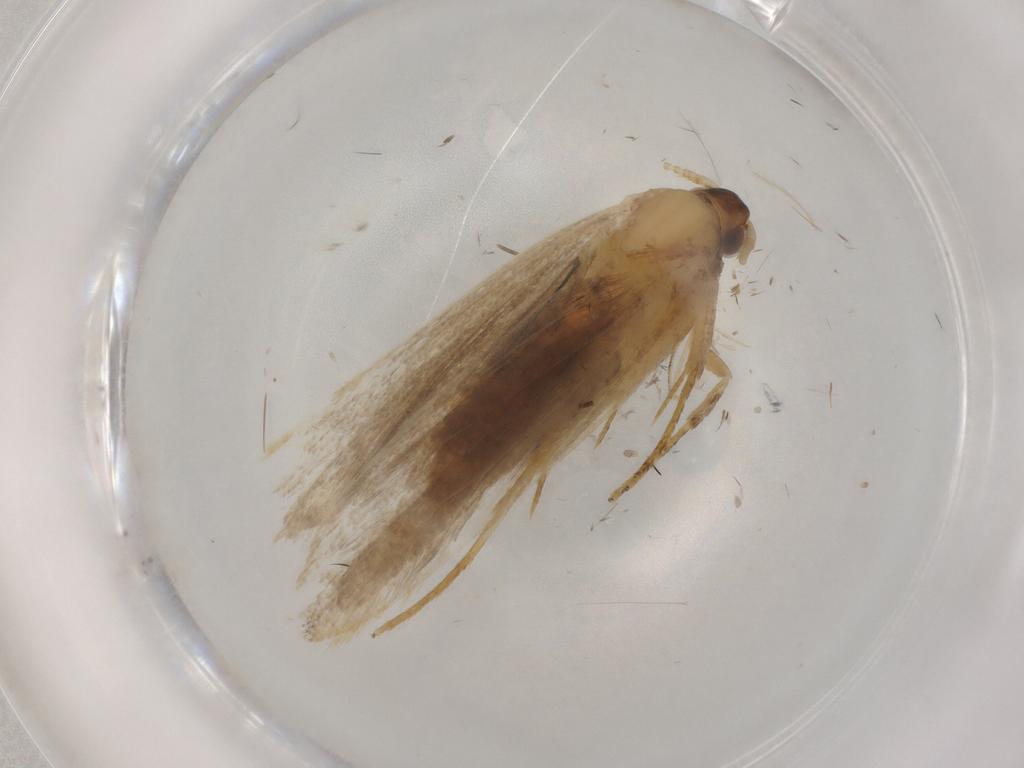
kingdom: Animalia
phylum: Arthropoda
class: Insecta
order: Lepidoptera
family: Lecithoceridae
